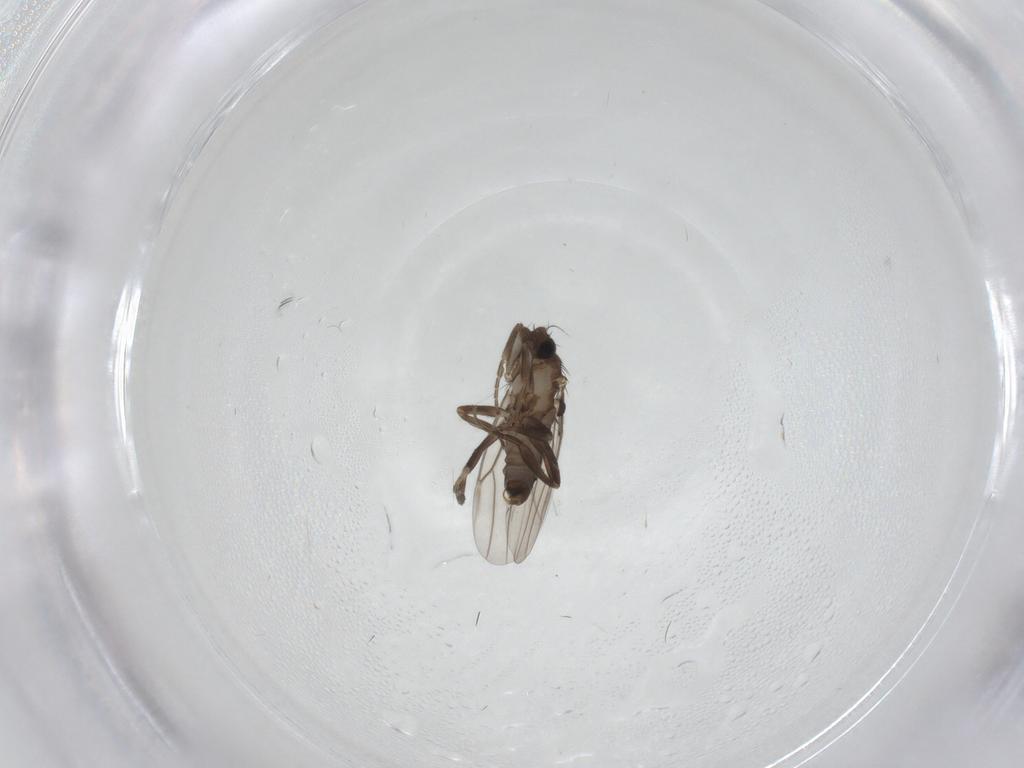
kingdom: Animalia
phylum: Arthropoda
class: Insecta
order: Diptera
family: Phoridae
